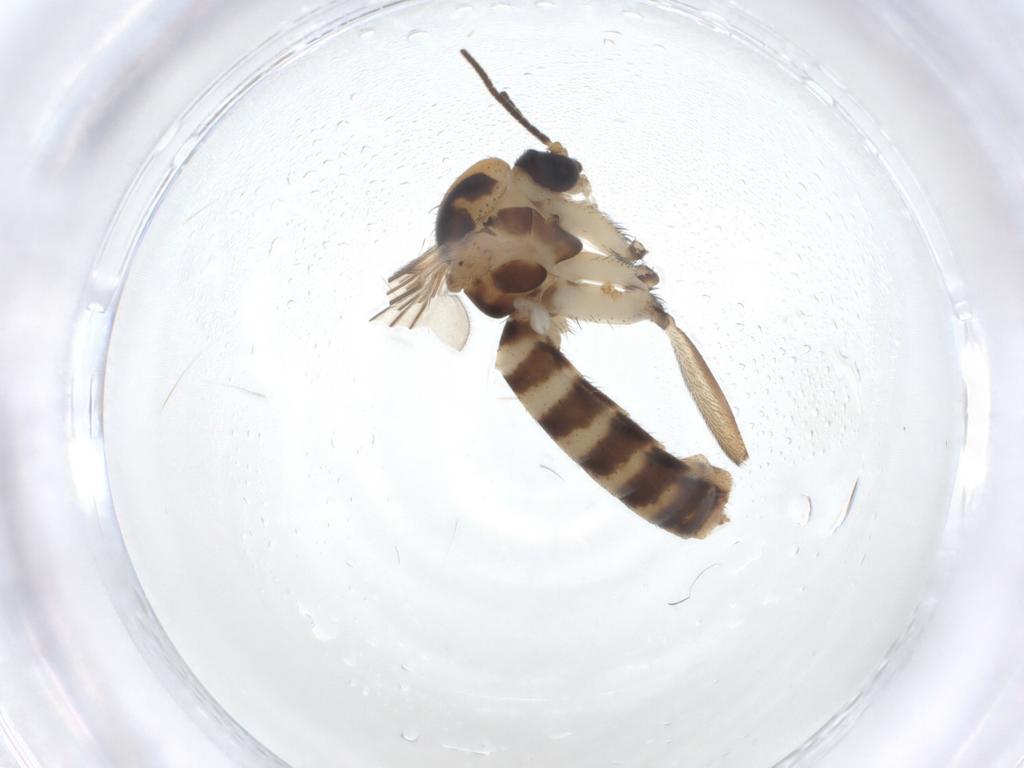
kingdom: Animalia
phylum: Arthropoda
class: Insecta
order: Diptera
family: Mycetophilidae
